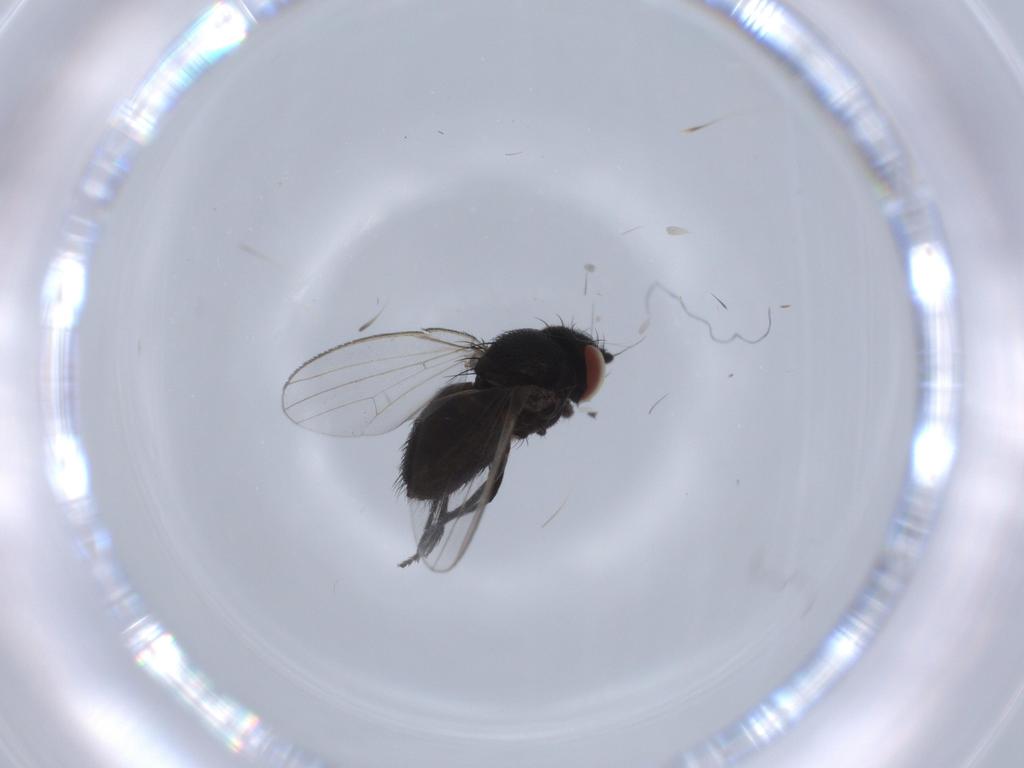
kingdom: Animalia
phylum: Arthropoda
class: Insecta
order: Diptera
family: Milichiidae
